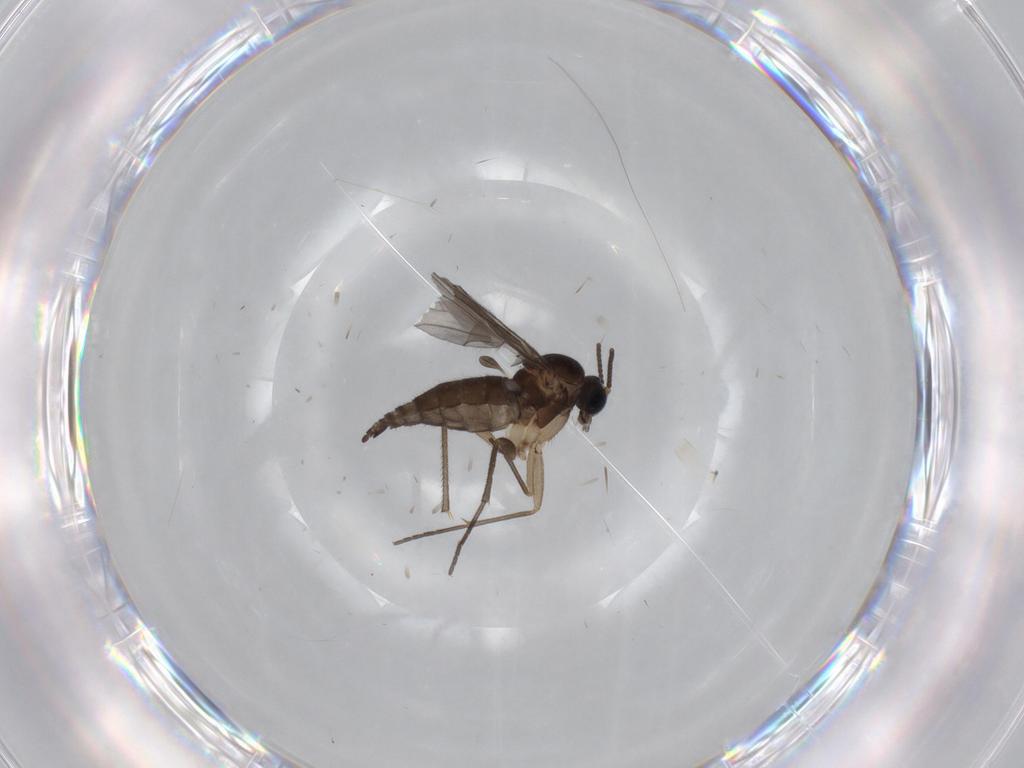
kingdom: Animalia
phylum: Arthropoda
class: Insecta
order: Diptera
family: Sciaridae
